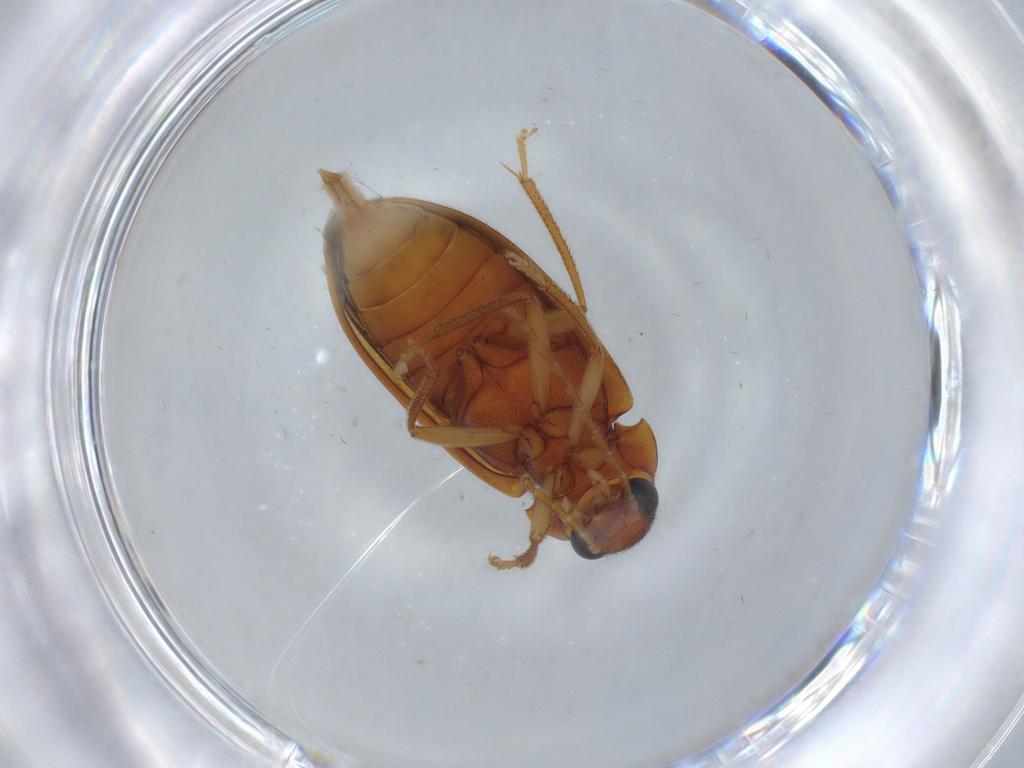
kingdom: Animalia
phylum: Arthropoda
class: Insecta
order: Coleoptera
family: Ptilodactylidae
